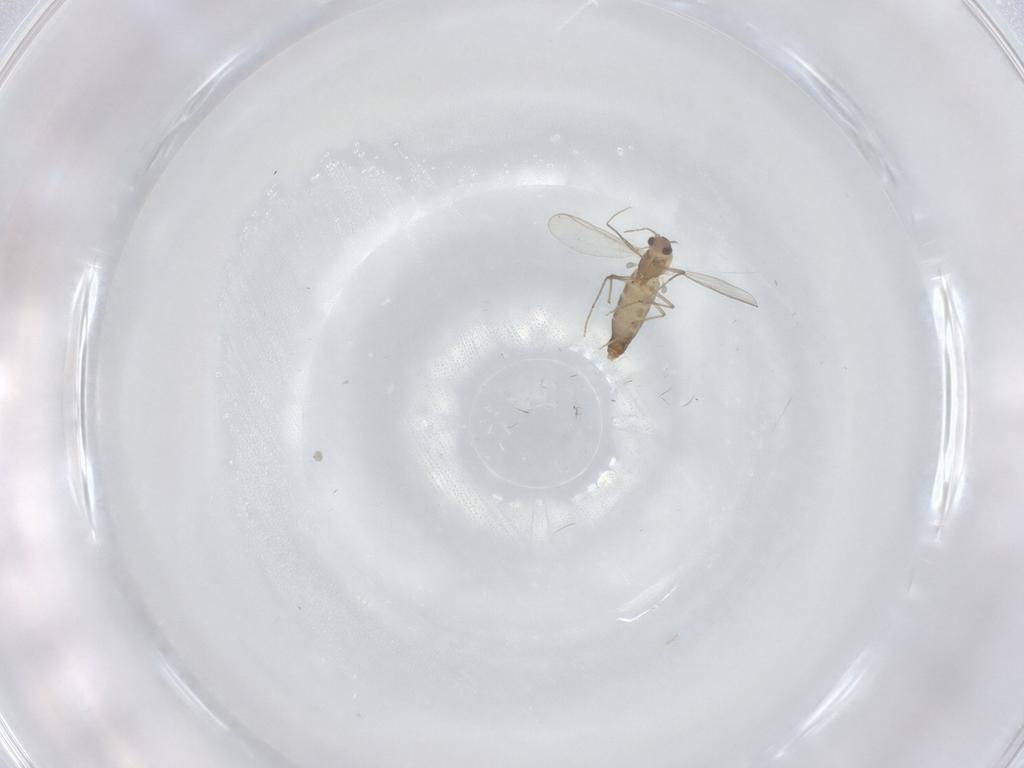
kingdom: Animalia
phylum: Arthropoda
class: Insecta
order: Diptera
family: Chironomidae
